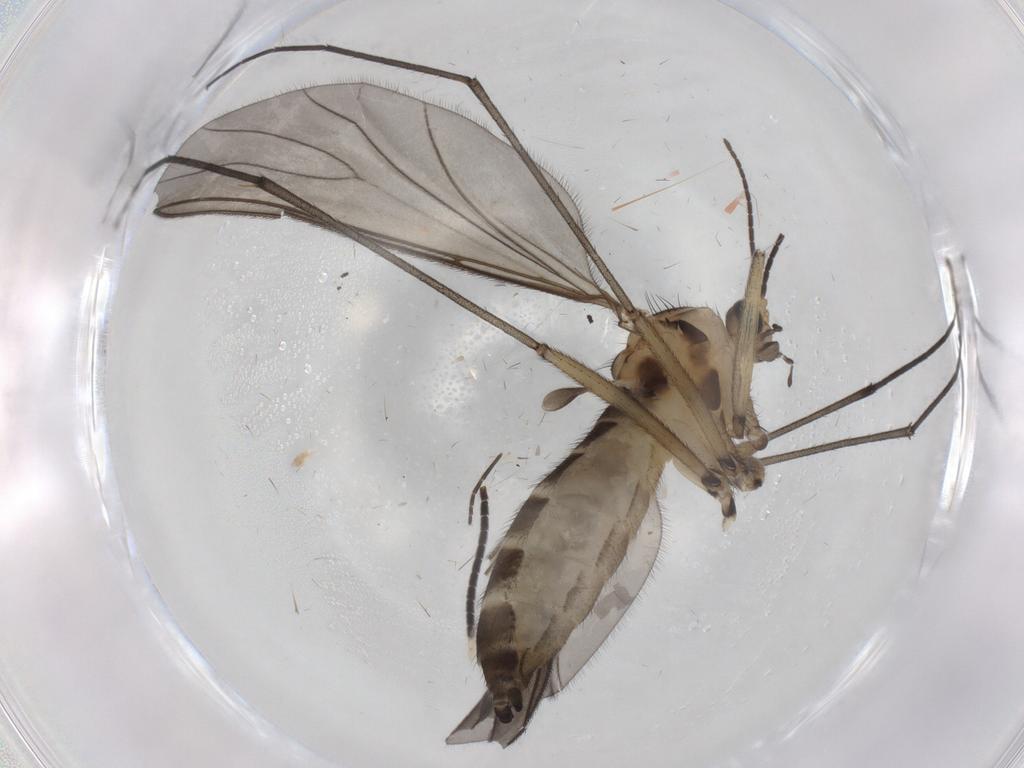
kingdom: Animalia
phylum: Arthropoda
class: Insecta
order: Diptera
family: Sciaridae
